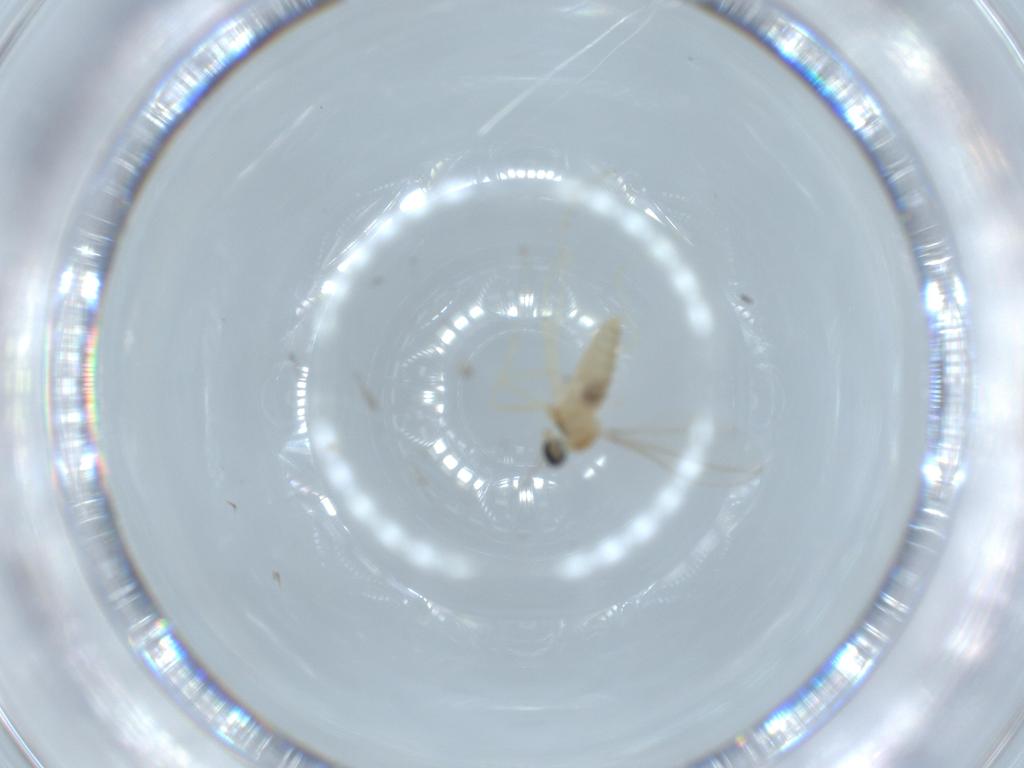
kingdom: Animalia
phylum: Arthropoda
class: Insecta
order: Diptera
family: Cecidomyiidae
